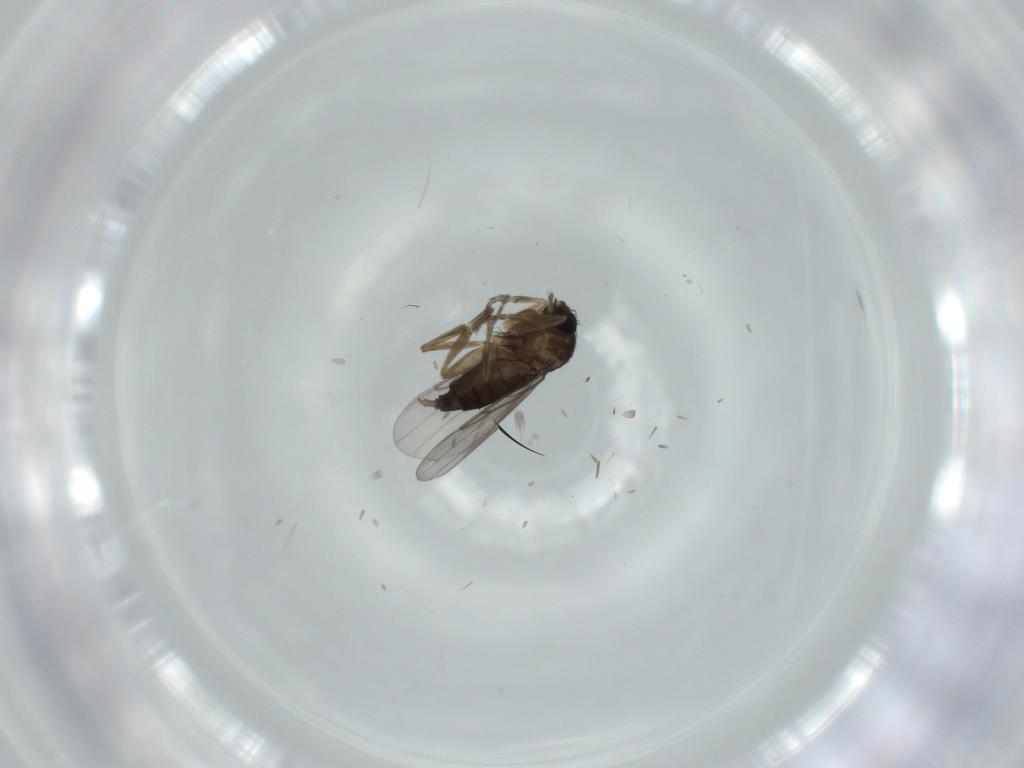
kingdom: Animalia
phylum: Arthropoda
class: Insecta
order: Diptera
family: Phoridae
